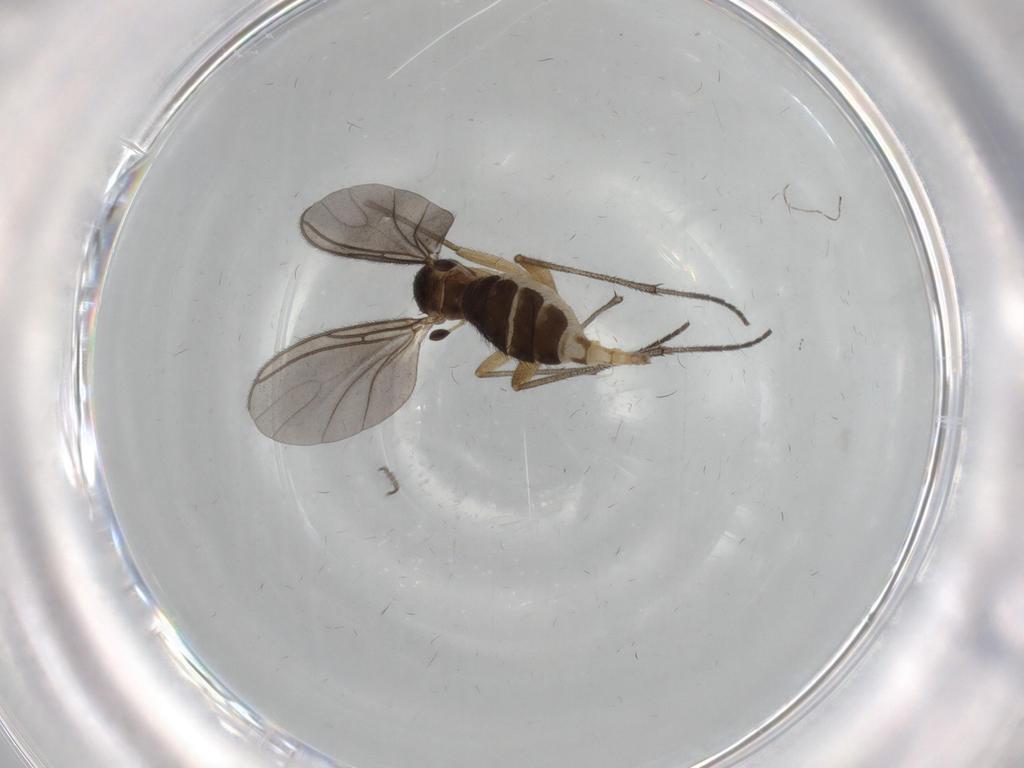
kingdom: Animalia
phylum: Arthropoda
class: Insecta
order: Diptera
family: Sciaridae
